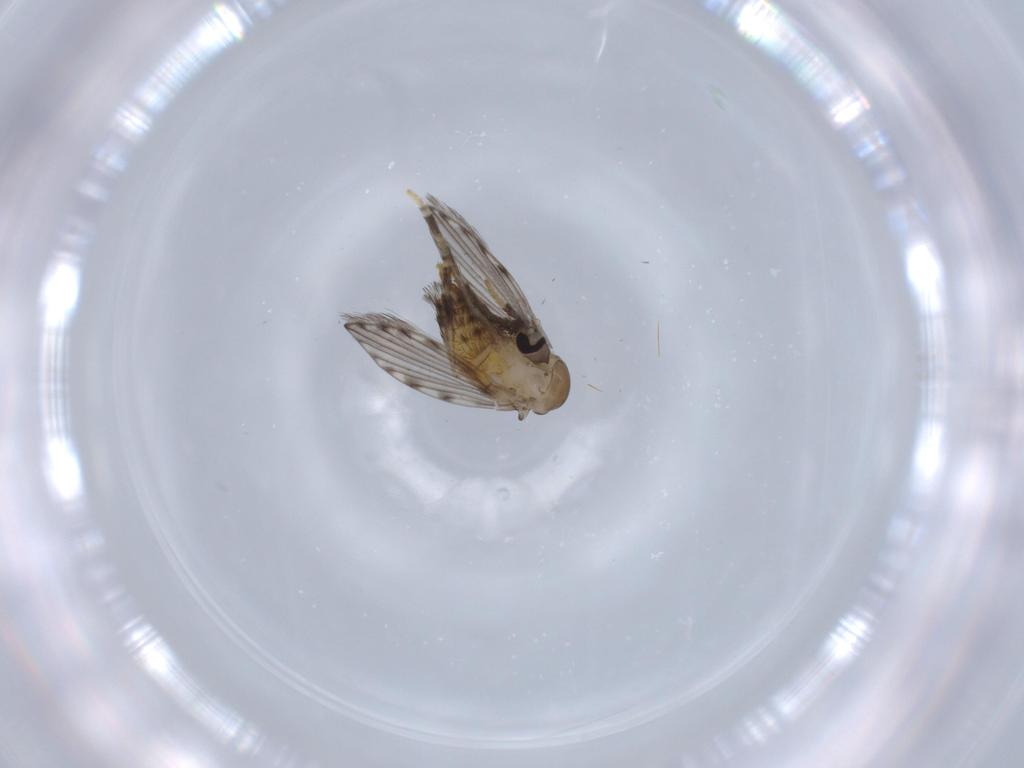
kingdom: Animalia
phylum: Arthropoda
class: Insecta
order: Diptera
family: Psychodidae
